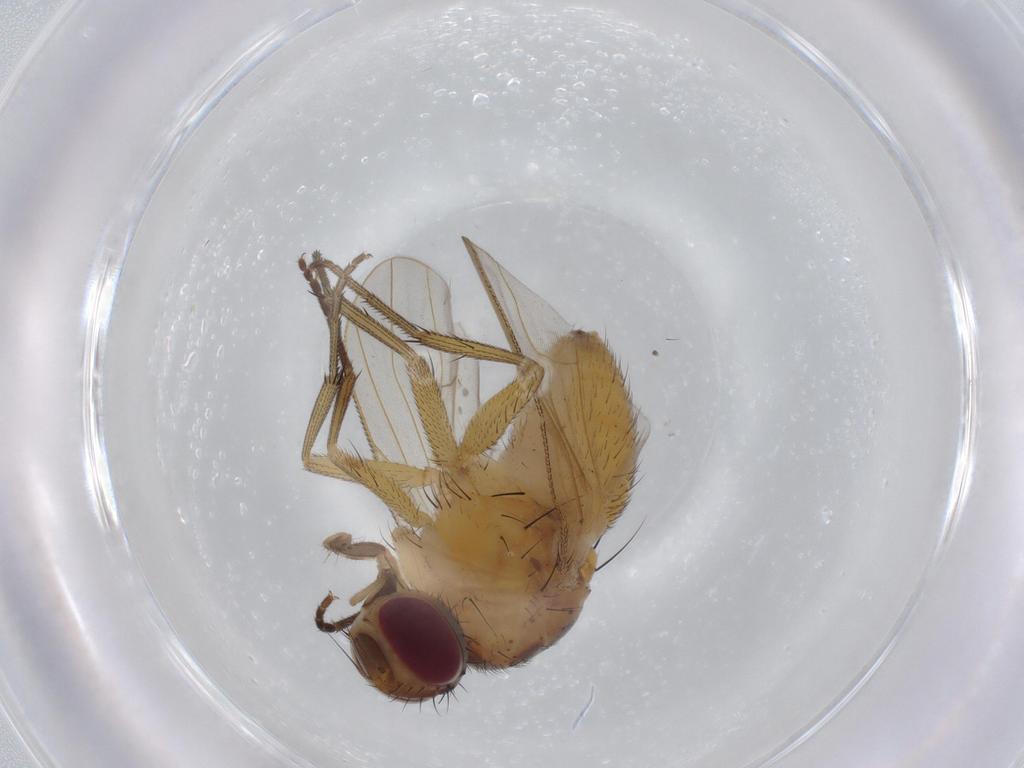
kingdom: Animalia
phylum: Arthropoda
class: Insecta
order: Diptera
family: Muscidae
